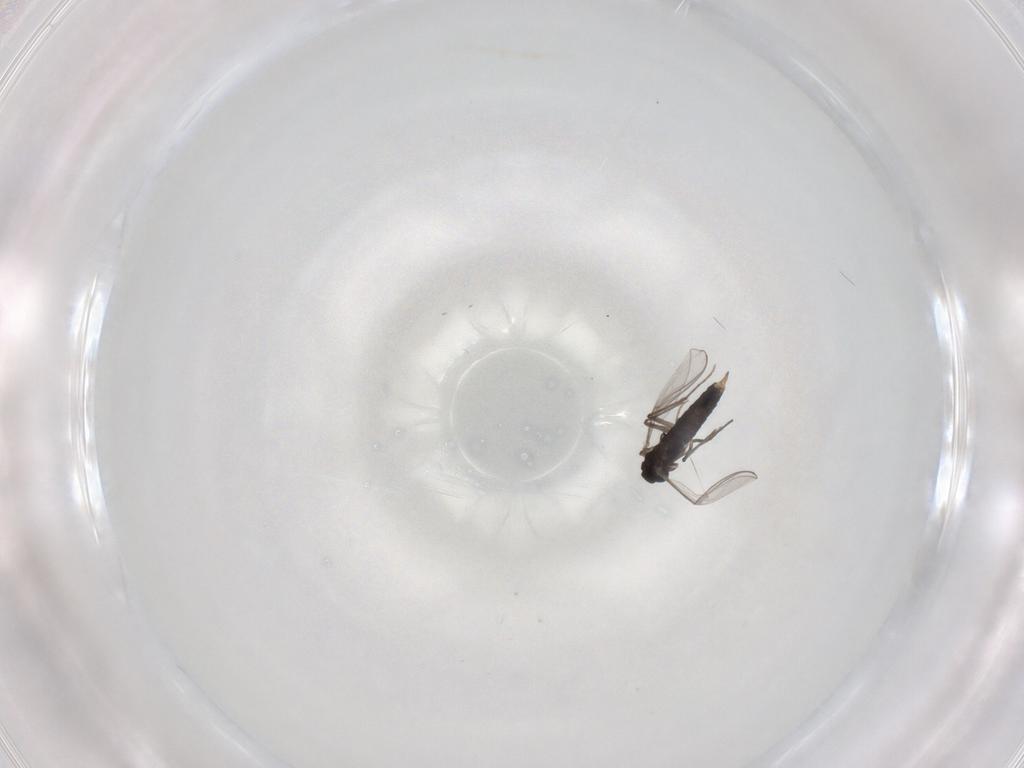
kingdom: Animalia
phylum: Arthropoda
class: Insecta
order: Diptera
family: Chironomidae
